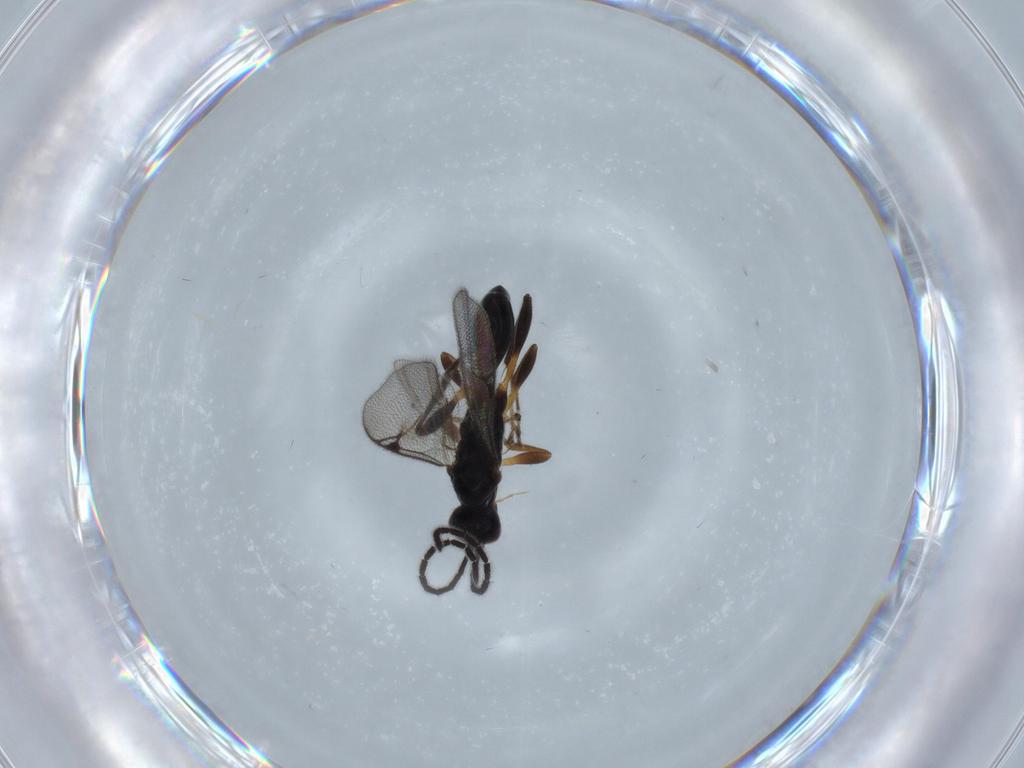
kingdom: Animalia
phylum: Arthropoda
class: Insecta
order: Hymenoptera
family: Proctotrupidae
